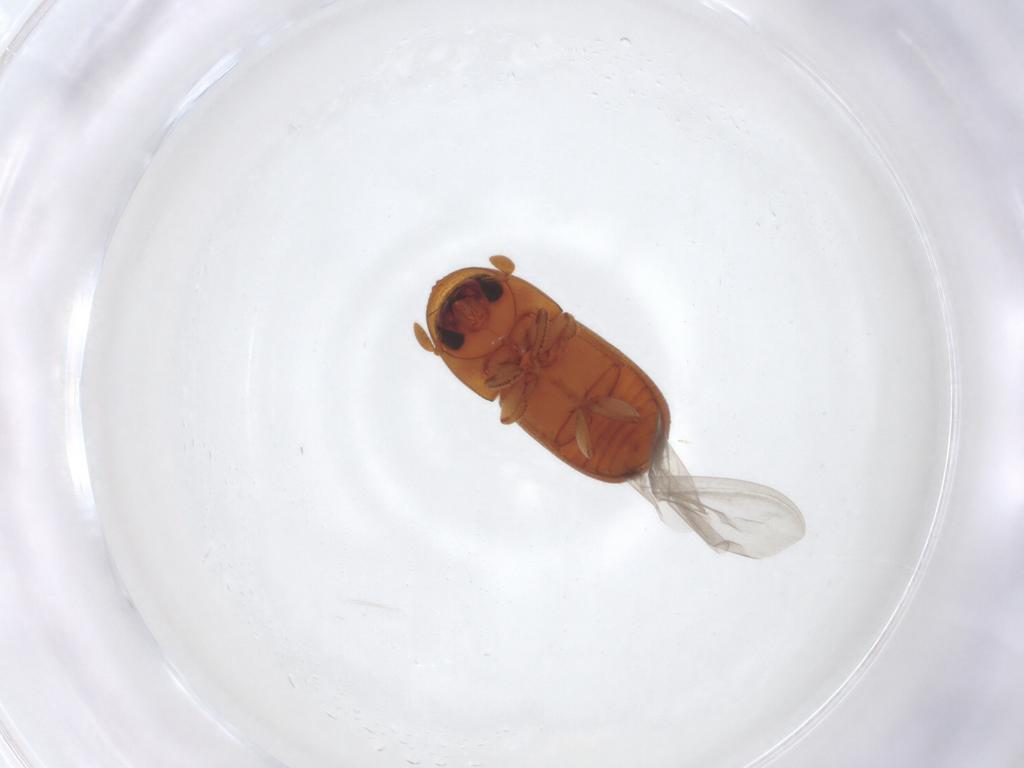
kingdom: Animalia
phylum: Arthropoda
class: Insecta
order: Coleoptera
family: Curculionidae
